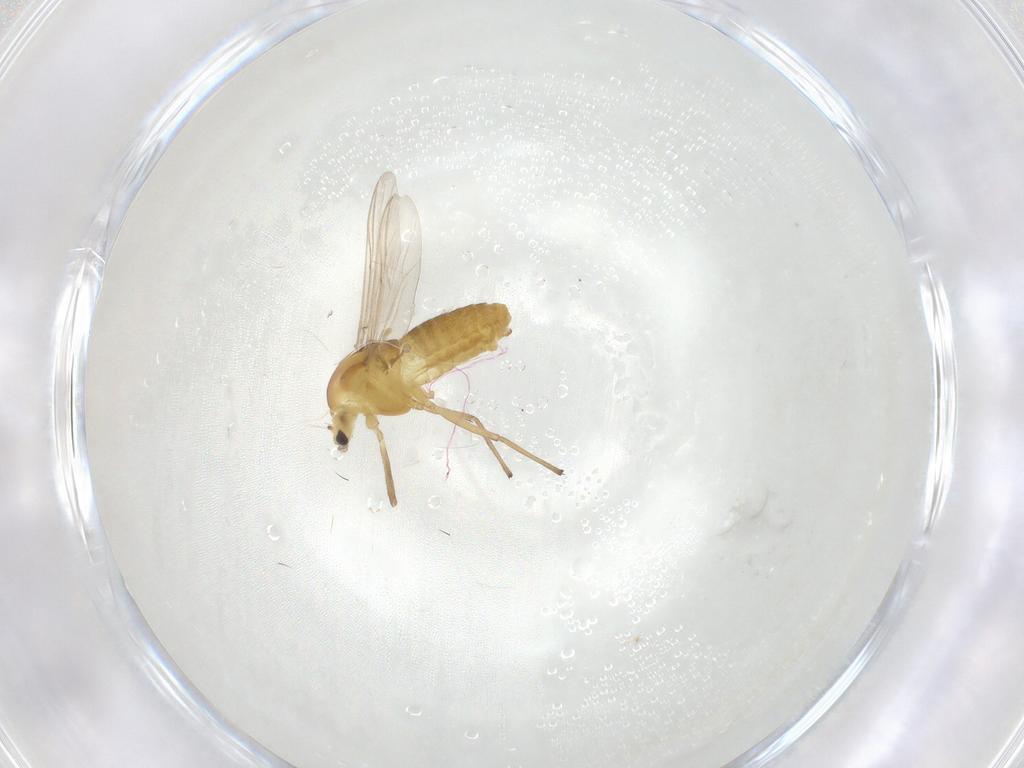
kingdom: Animalia
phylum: Arthropoda
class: Insecta
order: Diptera
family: Chironomidae
